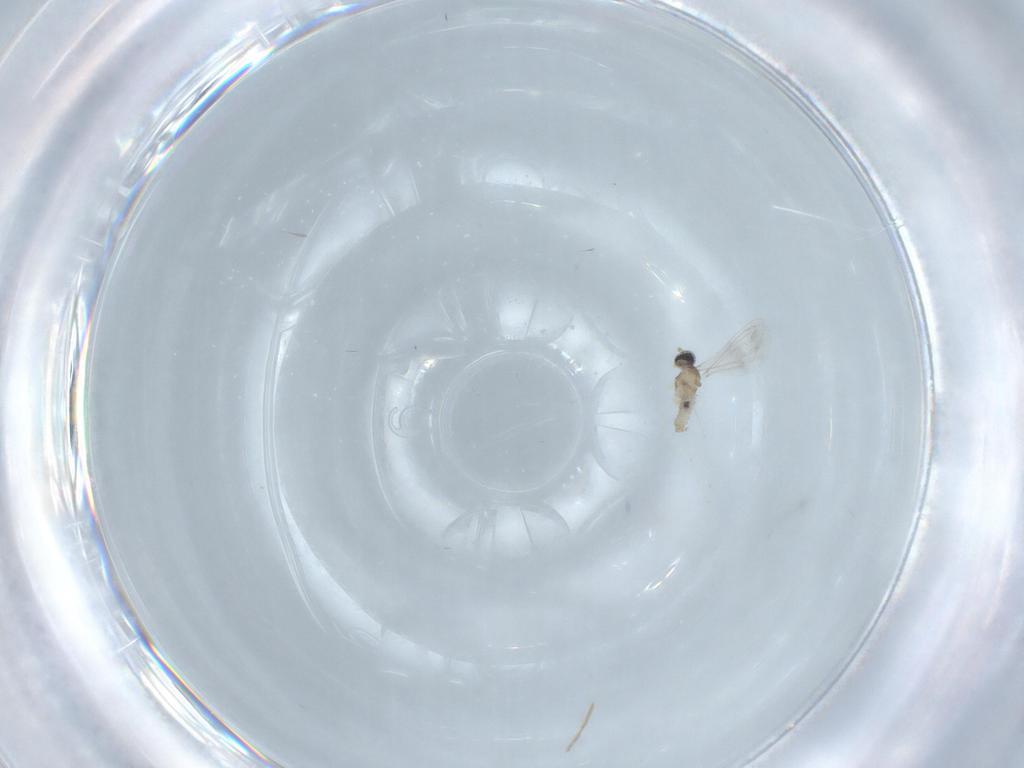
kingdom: Animalia
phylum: Arthropoda
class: Insecta
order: Diptera
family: Cecidomyiidae
